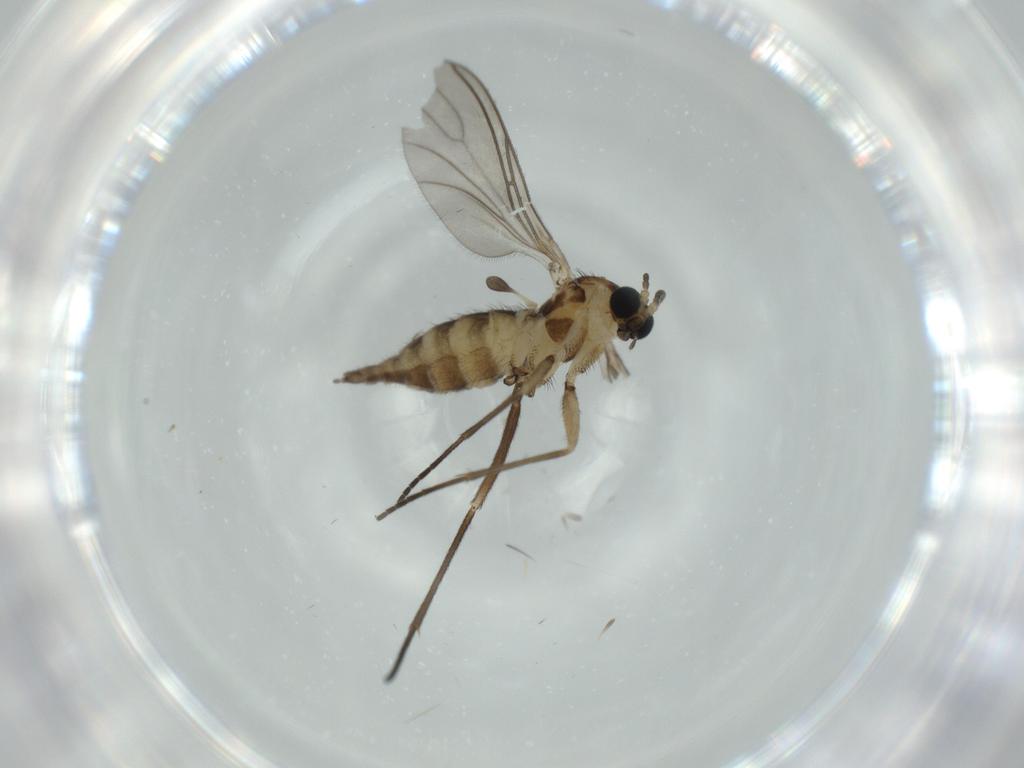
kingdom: Animalia
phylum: Arthropoda
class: Insecta
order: Diptera
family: Sciaridae
